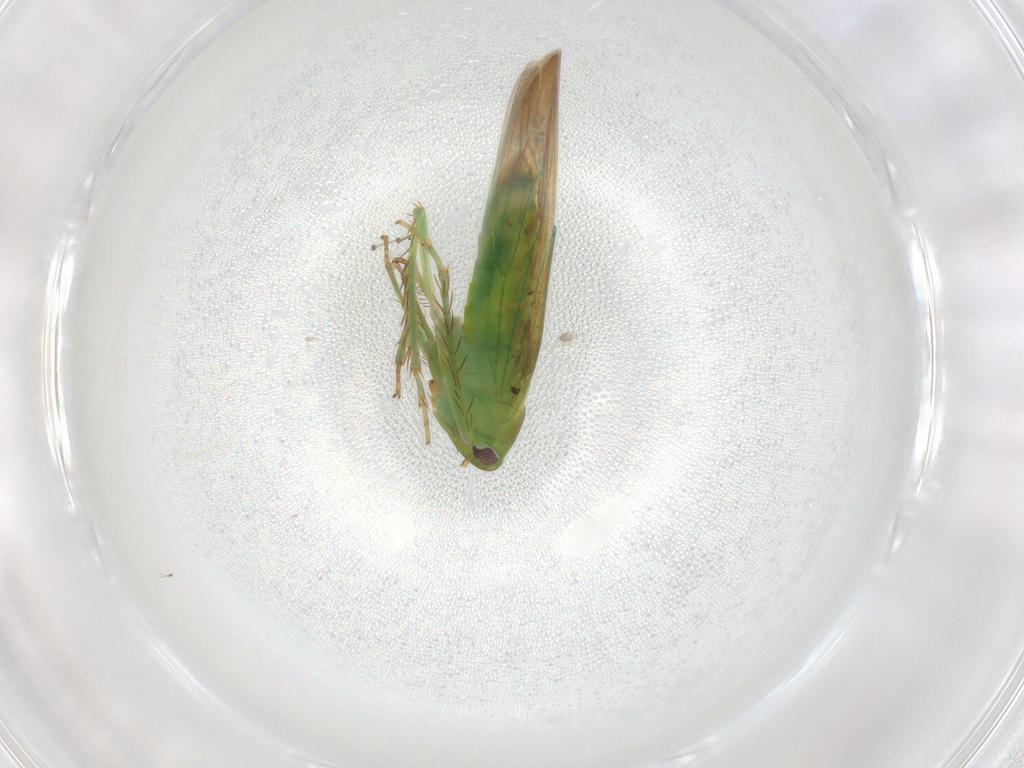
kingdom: Animalia
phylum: Arthropoda
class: Insecta
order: Hemiptera
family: Cicadellidae
